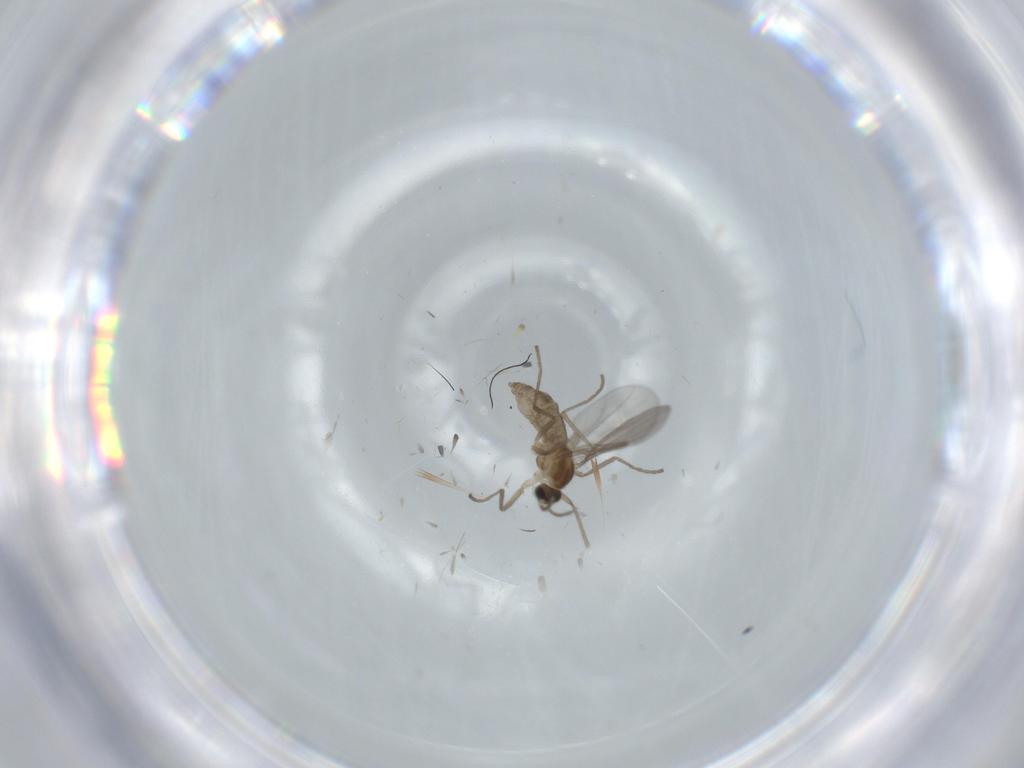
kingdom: Animalia
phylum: Arthropoda
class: Insecta
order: Diptera
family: Cecidomyiidae
